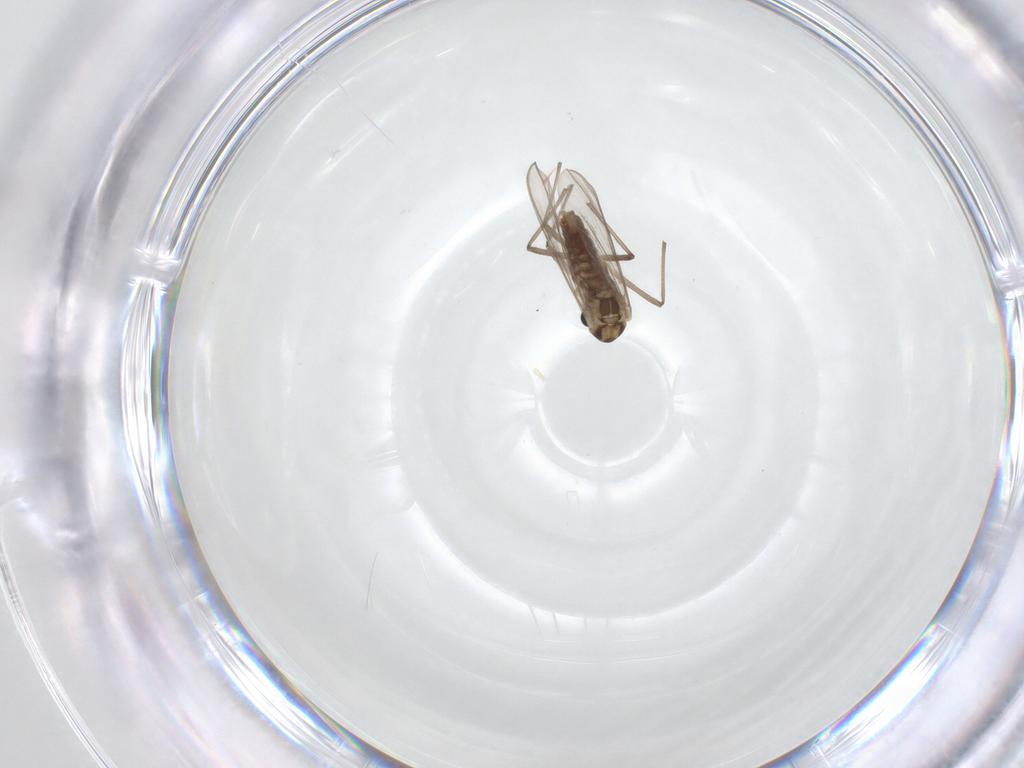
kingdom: Animalia
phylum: Arthropoda
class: Insecta
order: Diptera
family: Chironomidae
